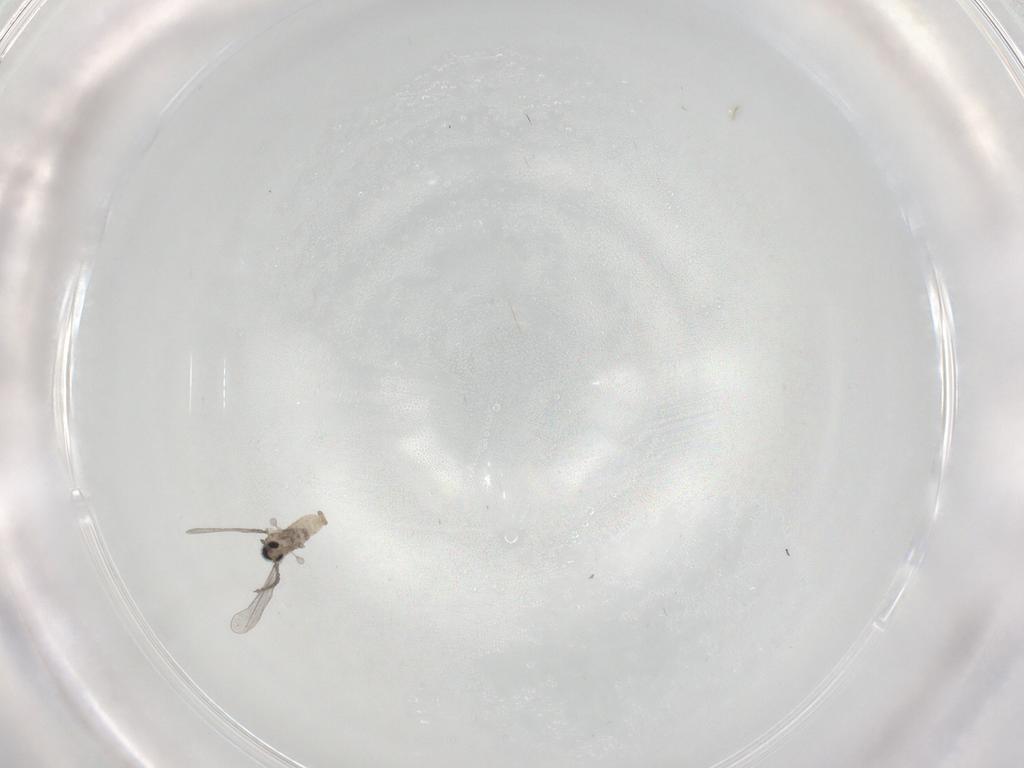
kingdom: Animalia
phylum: Arthropoda
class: Insecta
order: Diptera
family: Cecidomyiidae
